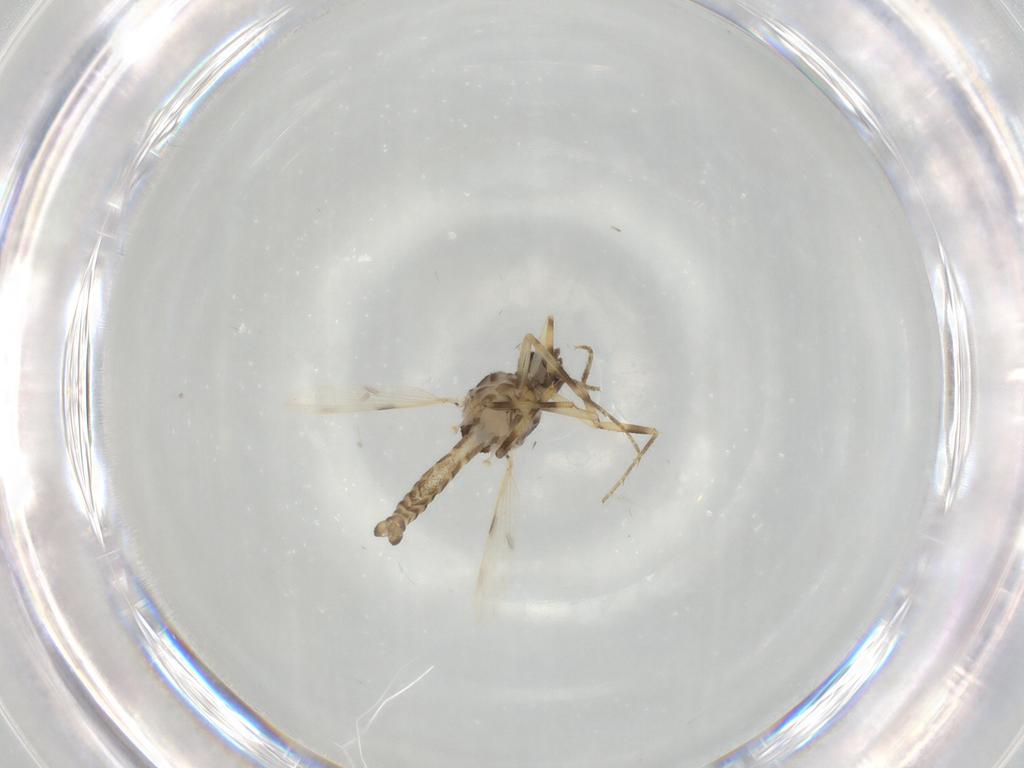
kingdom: Animalia
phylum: Arthropoda
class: Insecta
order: Diptera
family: Ceratopogonidae
